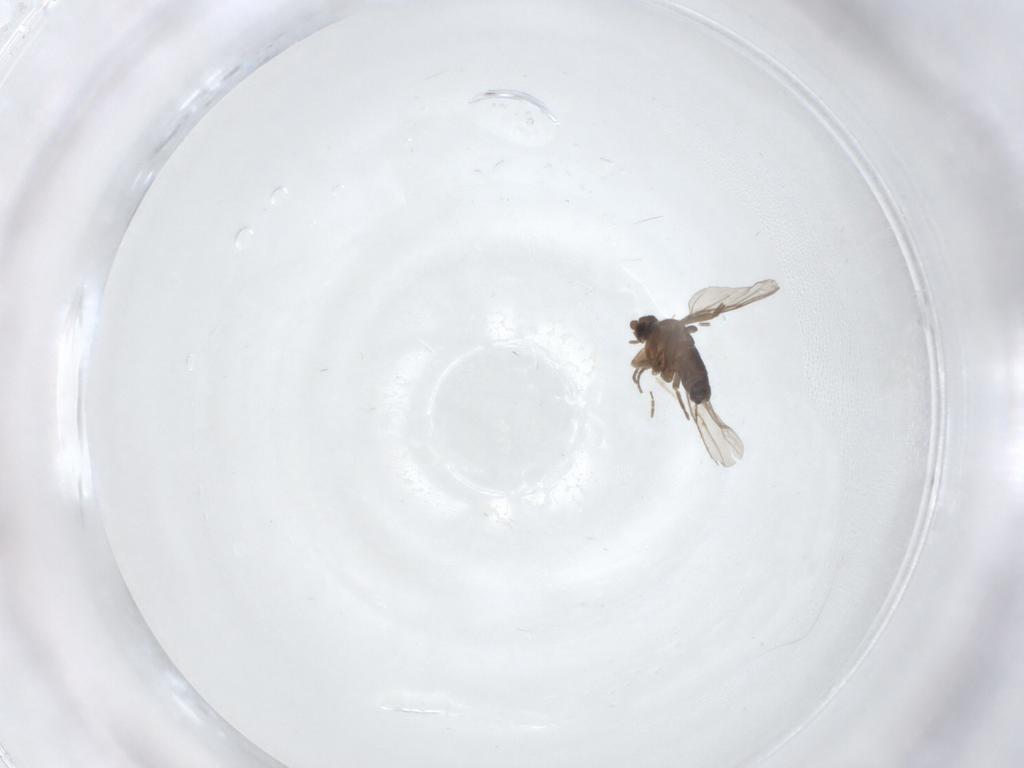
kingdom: Animalia
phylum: Arthropoda
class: Insecta
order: Diptera
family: Phoridae
